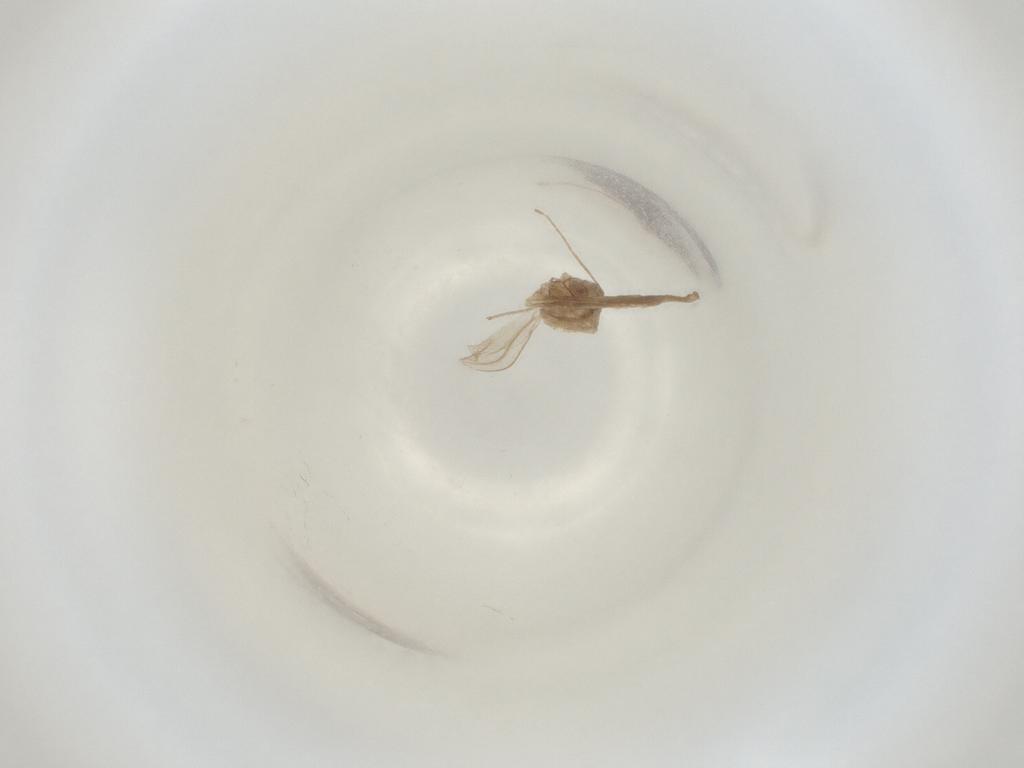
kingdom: Animalia
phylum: Arthropoda
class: Insecta
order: Diptera
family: Cecidomyiidae
